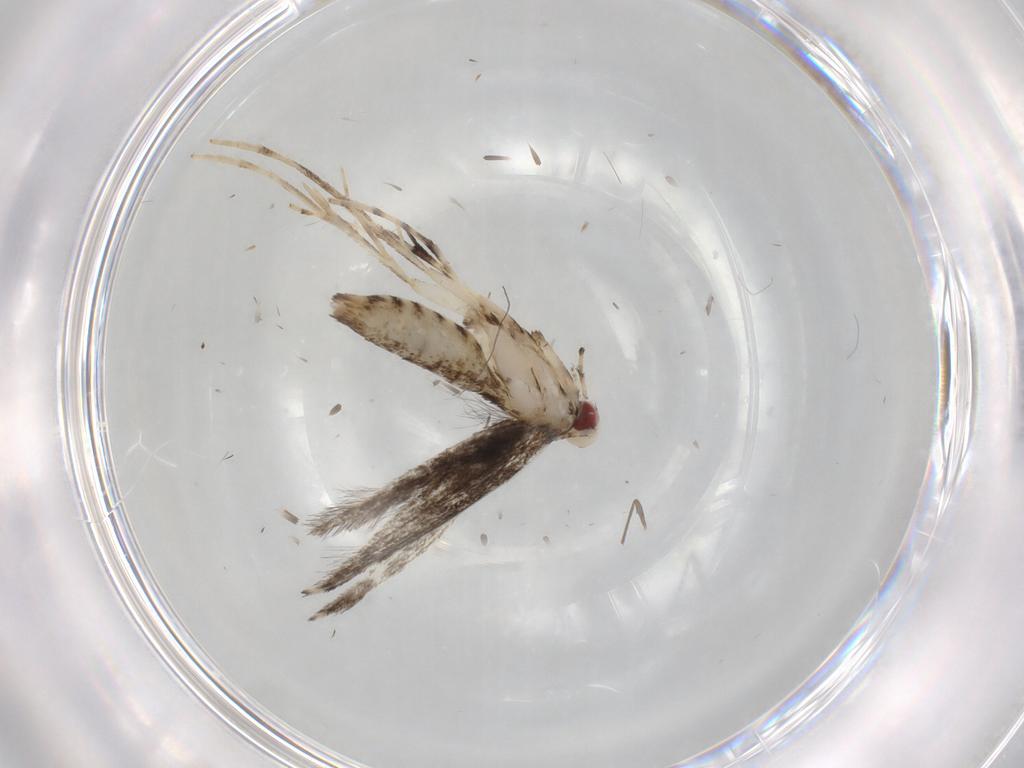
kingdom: Animalia
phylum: Arthropoda
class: Insecta
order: Lepidoptera
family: Gracillariidae
